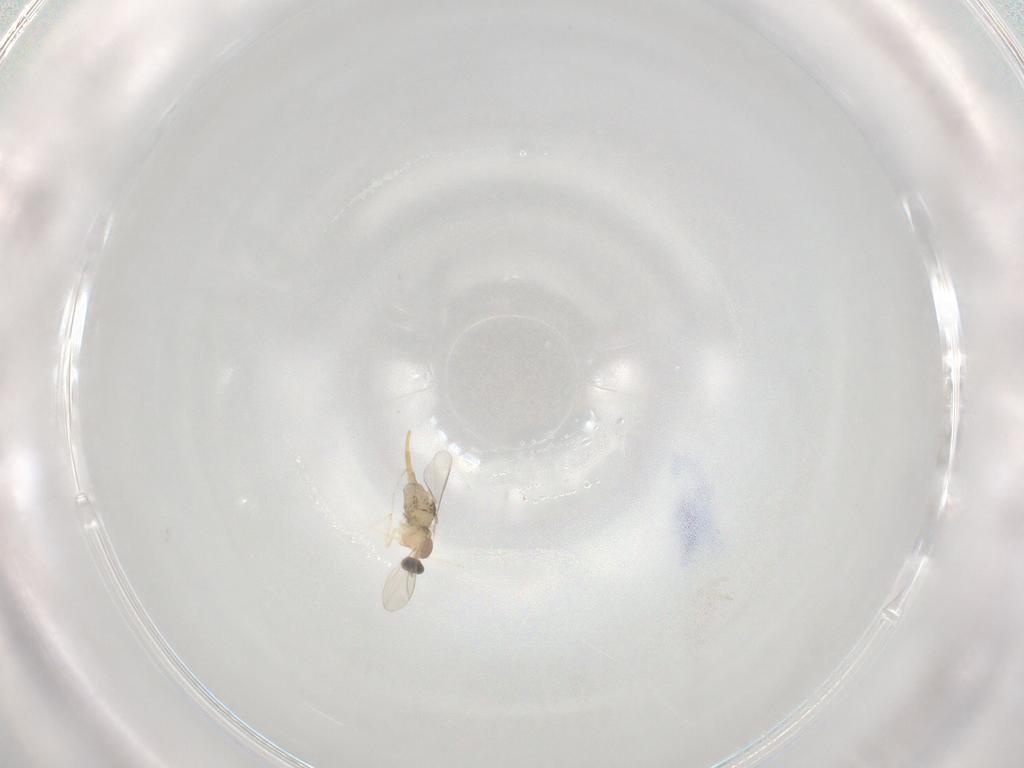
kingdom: Animalia
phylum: Arthropoda
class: Insecta
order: Diptera
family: Cecidomyiidae
